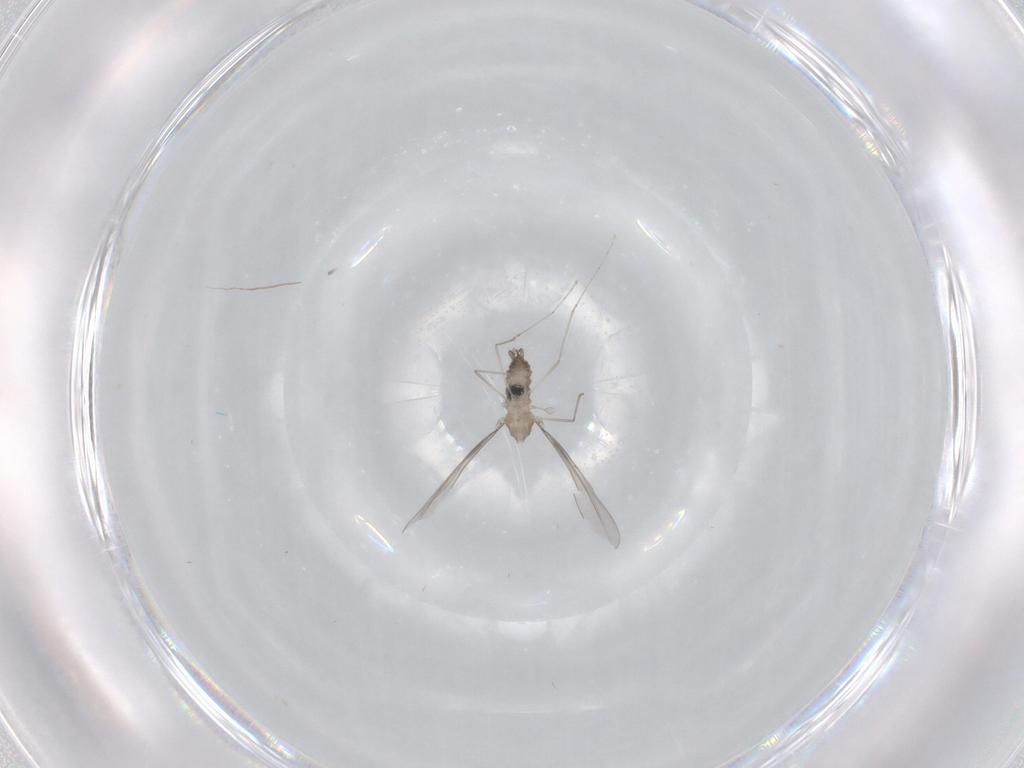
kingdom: Animalia
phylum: Arthropoda
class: Insecta
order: Diptera
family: Cecidomyiidae
